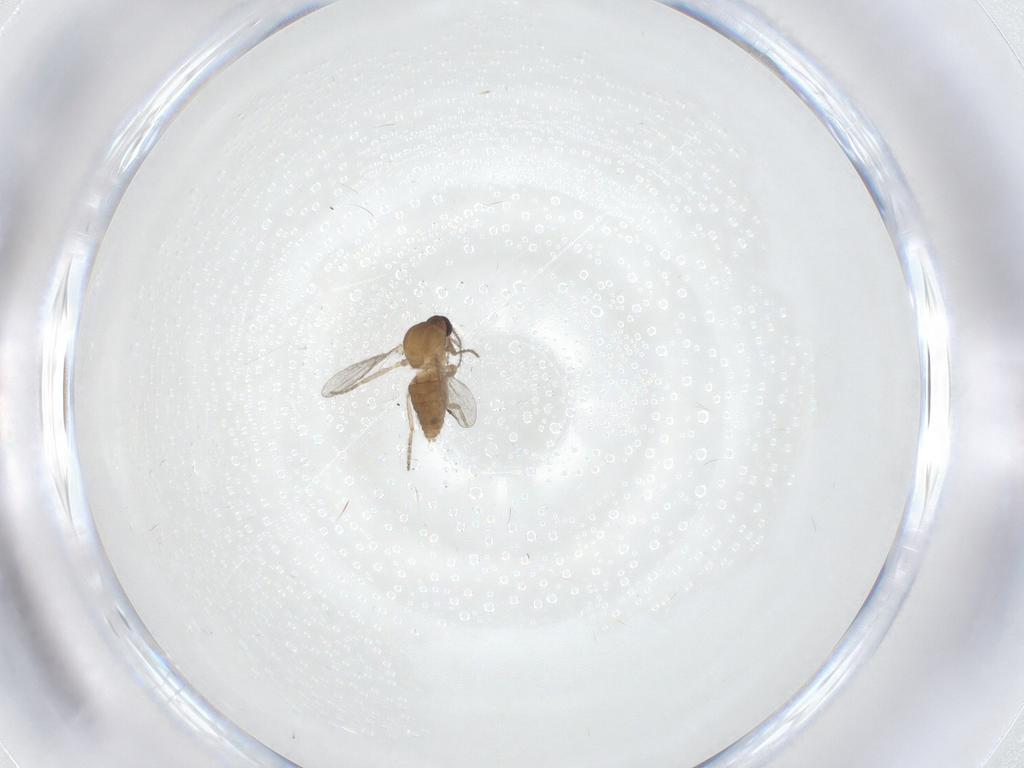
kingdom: Animalia
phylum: Arthropoda
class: Insecta
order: Diptera
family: Ceratopogonidae
